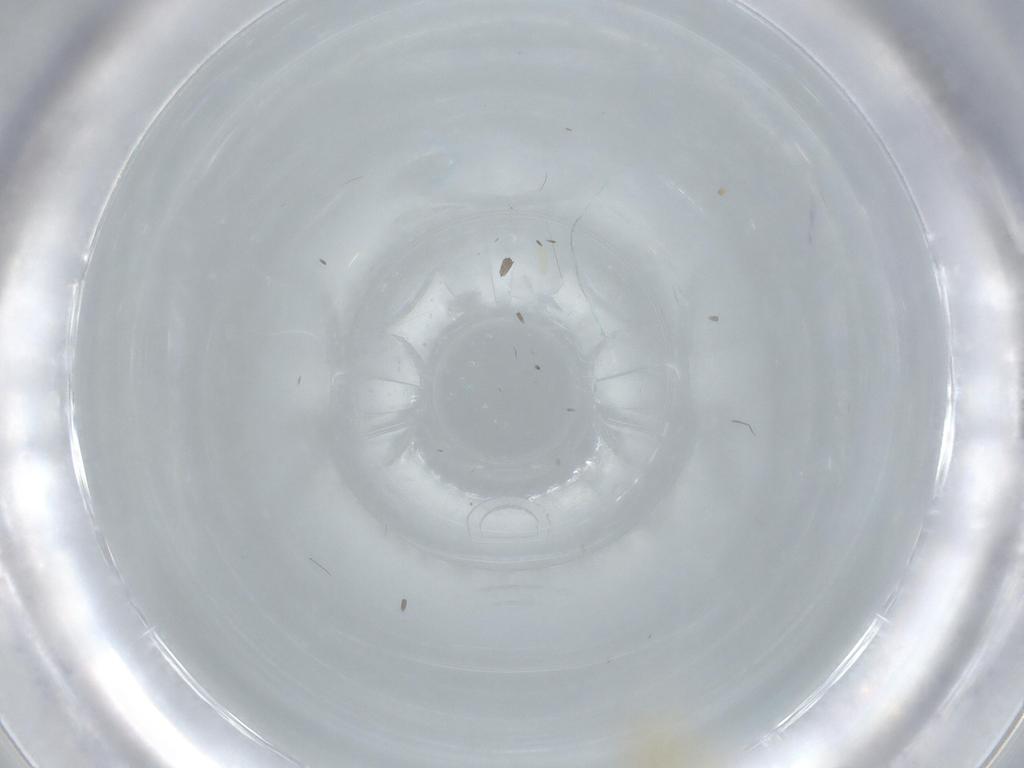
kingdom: Animalia
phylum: Arthropoda
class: Insecta
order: Hemiptera
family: Flatidae
